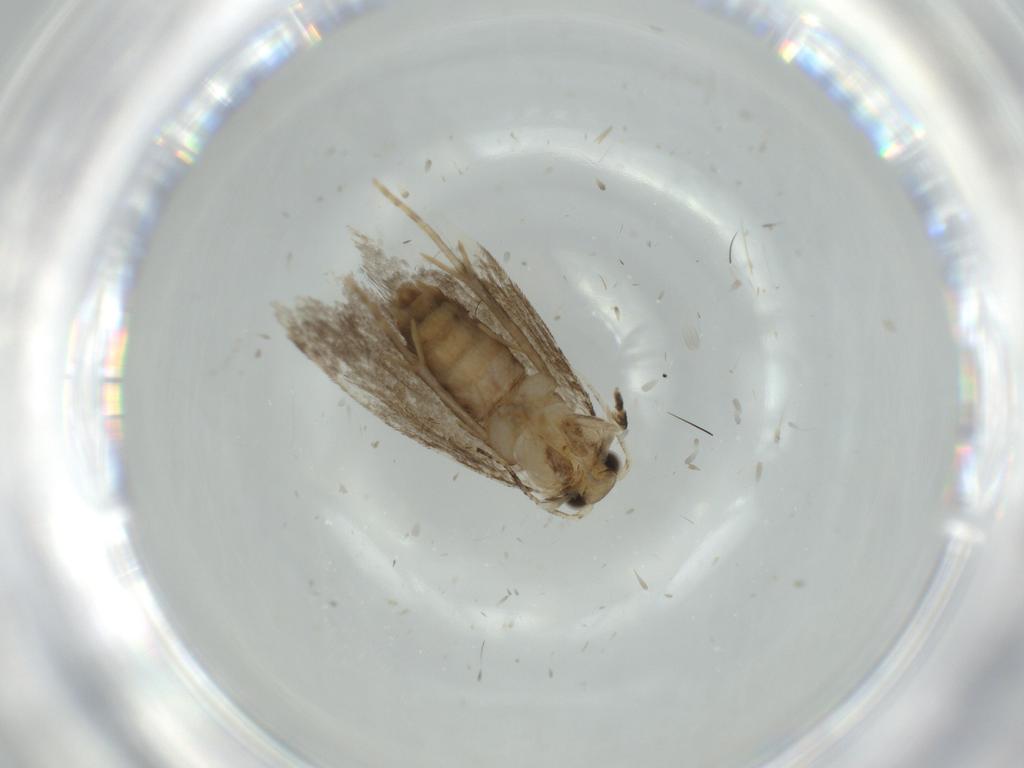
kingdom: Animalia
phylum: Arthropoda
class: Insecta
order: Lepidoptera
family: Tineidae
